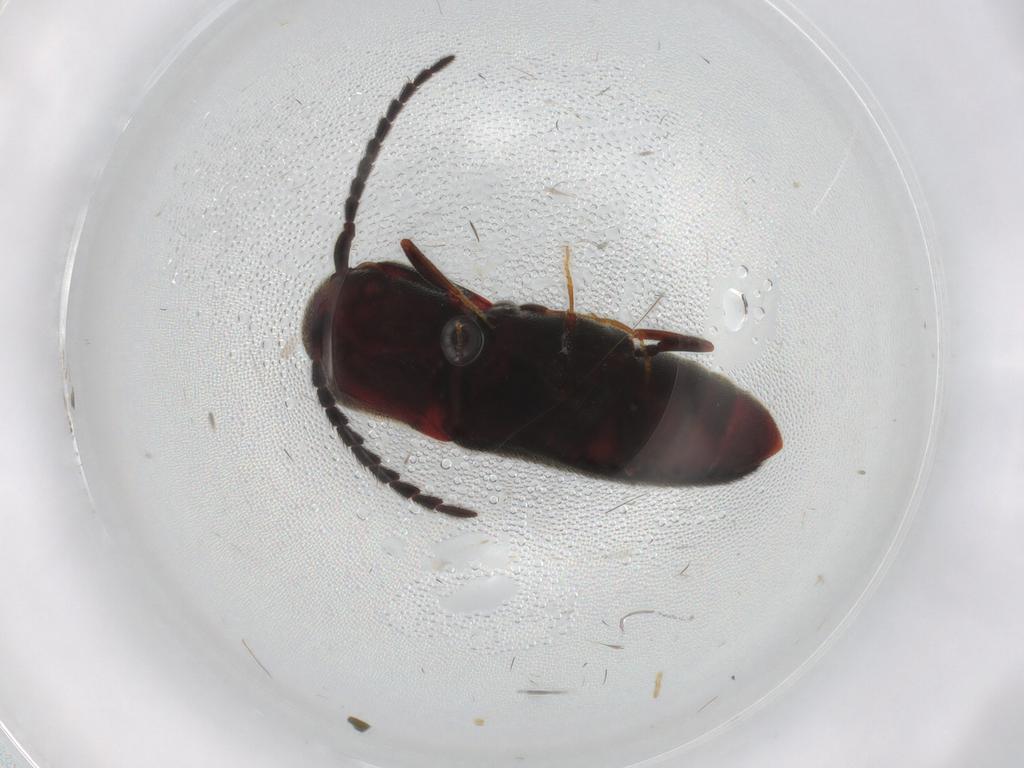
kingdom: Animalia
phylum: Arthropoda
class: Insecta
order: Coleoptera
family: Eucnemidae
